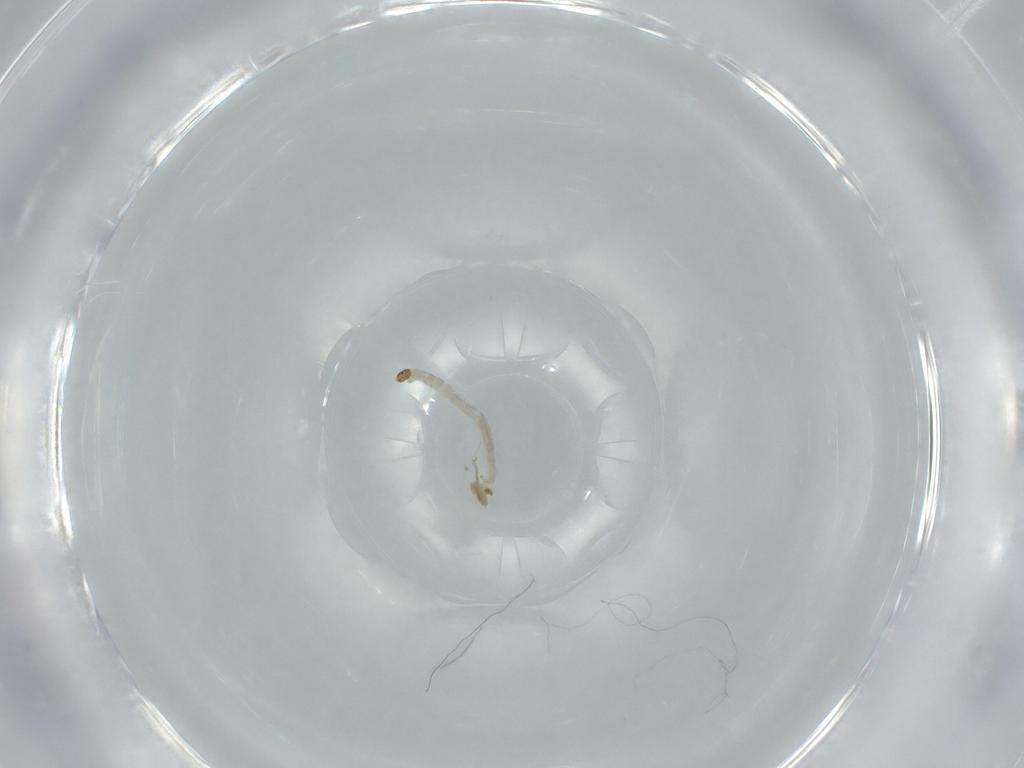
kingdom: Animalia
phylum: Arthropoda
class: Insecta
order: Diptera
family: Chironomidae
